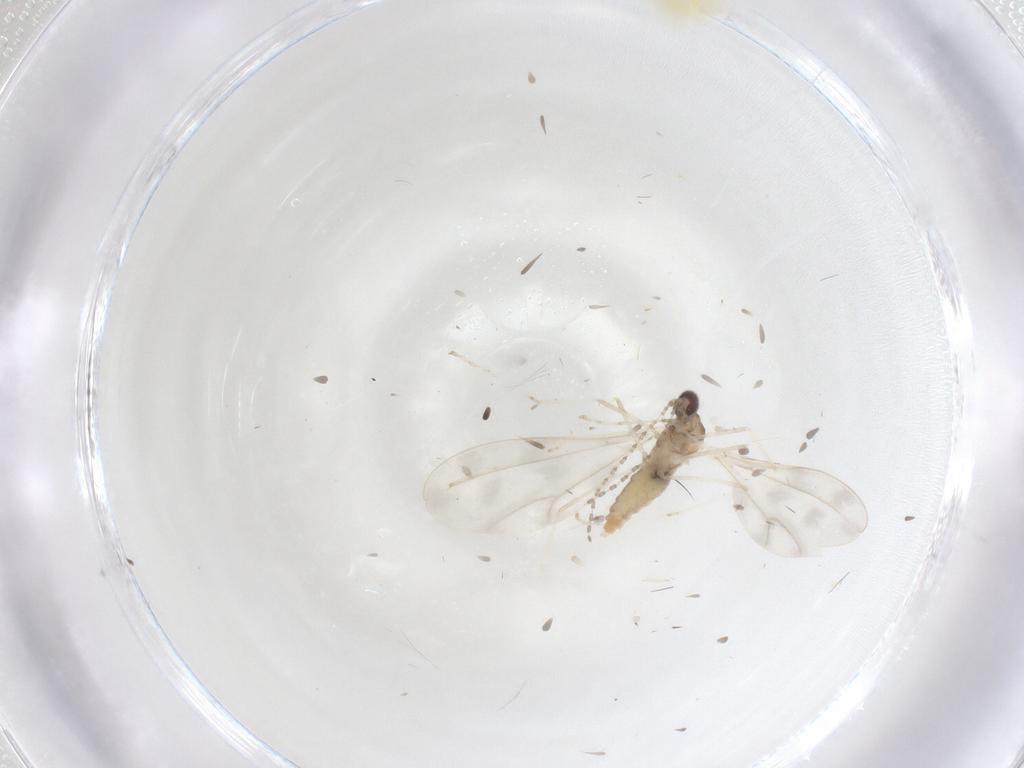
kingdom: Animalia
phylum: Arthropoda
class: Insecta
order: Diptera
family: Cecidomyiidae
